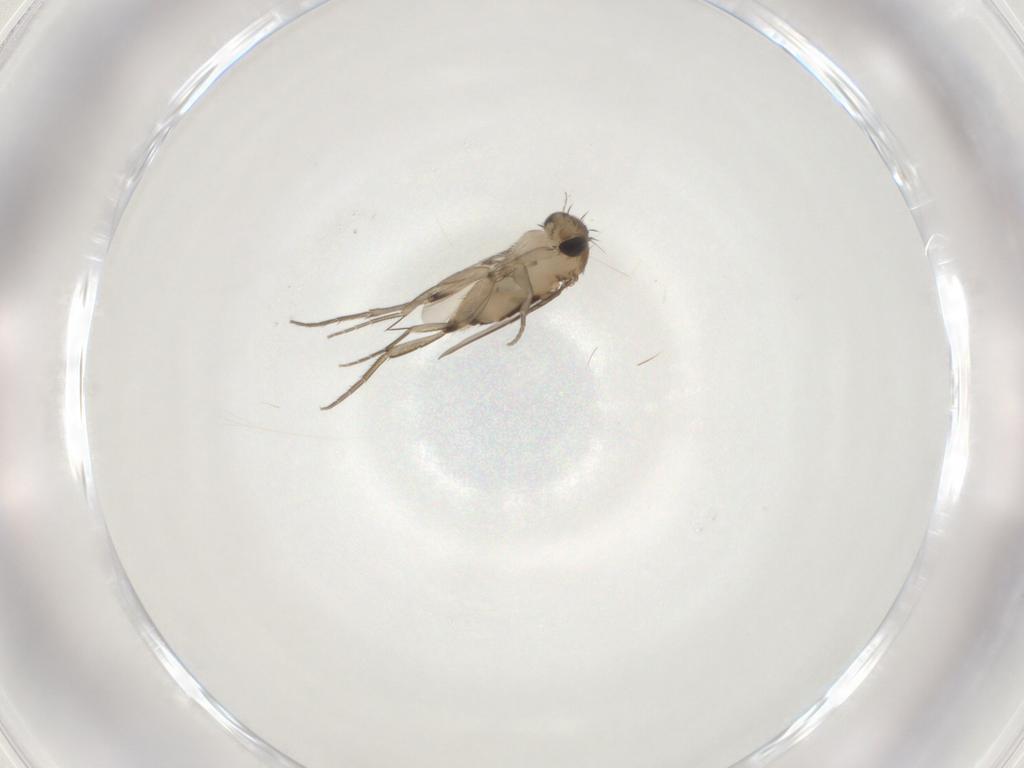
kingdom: Animalia
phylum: Arthropoda
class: Insecta
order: Diptera
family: Phoridae
